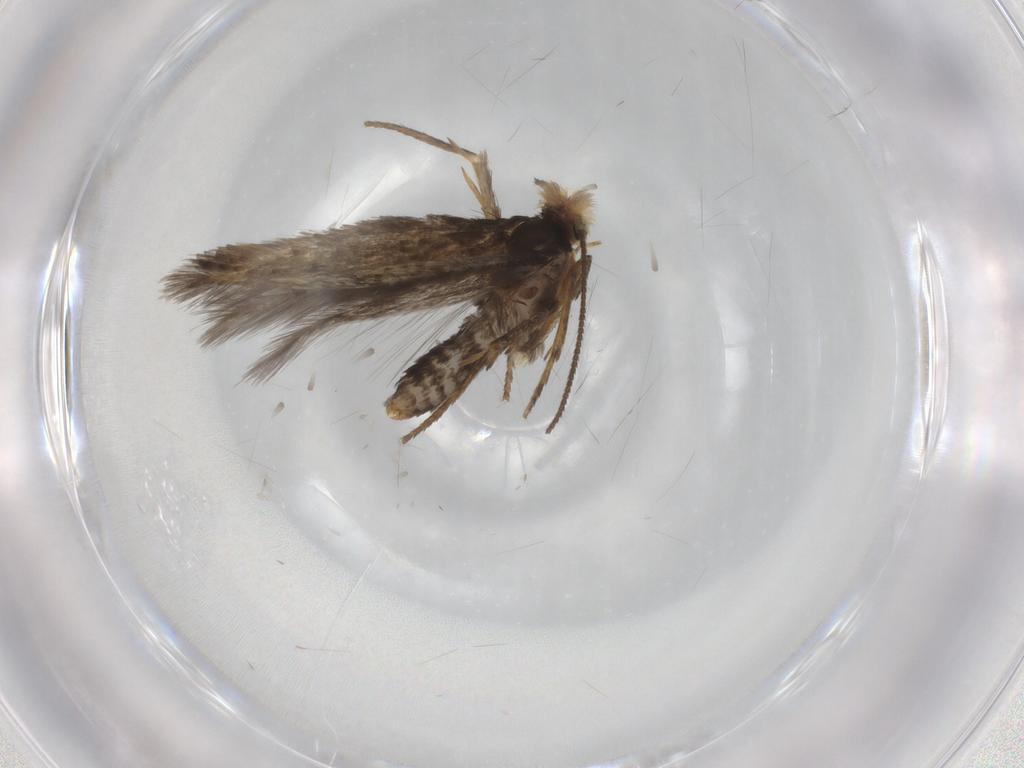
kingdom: Animalia
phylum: Arthropoda
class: Insecta
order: Lepidoptera
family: Nepticulidae
